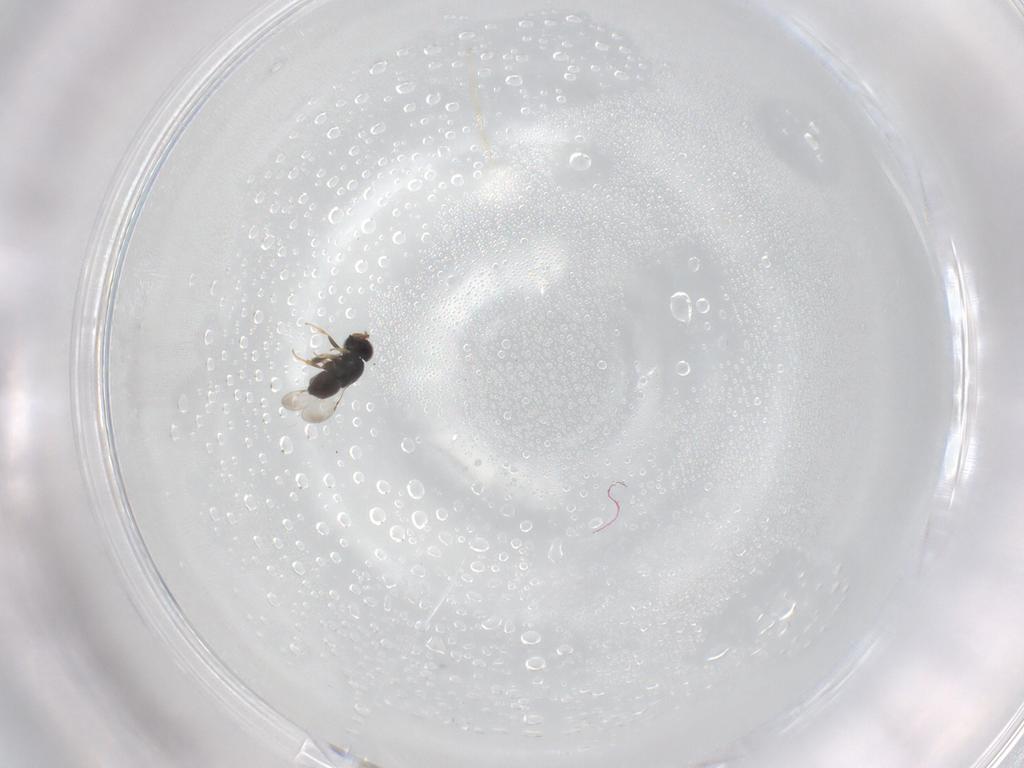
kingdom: Animalia
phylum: Arthropoda
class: Insecta
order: Hymenoptera
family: Ceraphronidae
